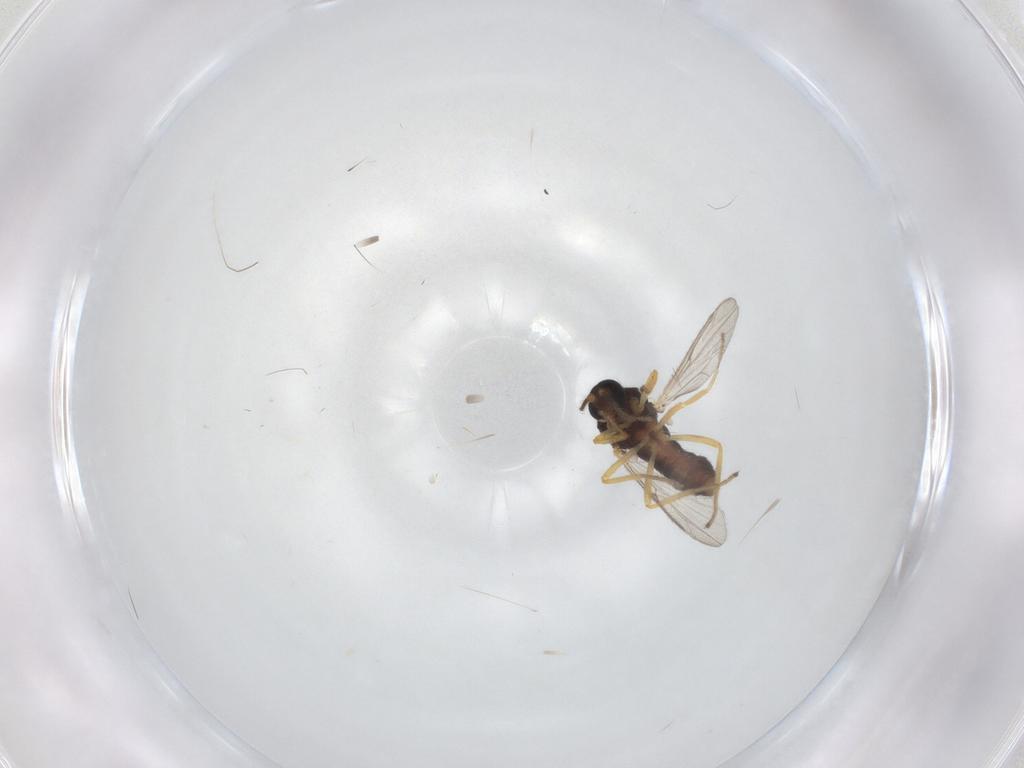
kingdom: Animalia
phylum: Arthropoda
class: Insecta
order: Diptera
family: Ceratopogonidae
